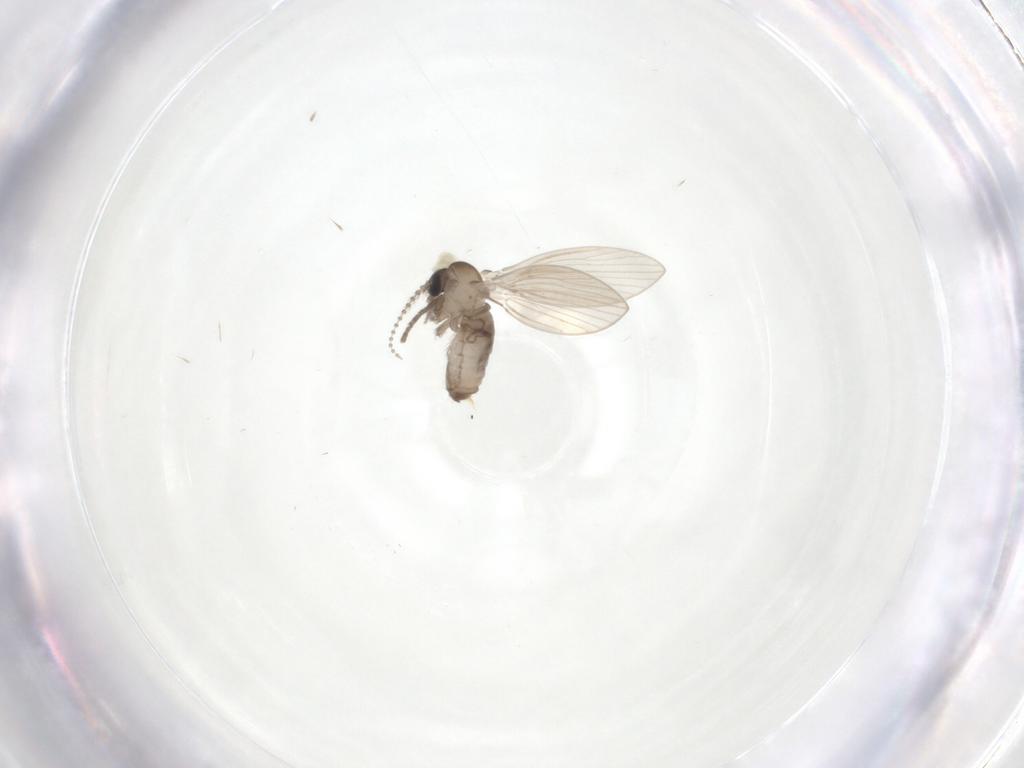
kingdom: Animalia
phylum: Arthropoda
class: Insecta
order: Diptera
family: Psychodidae
